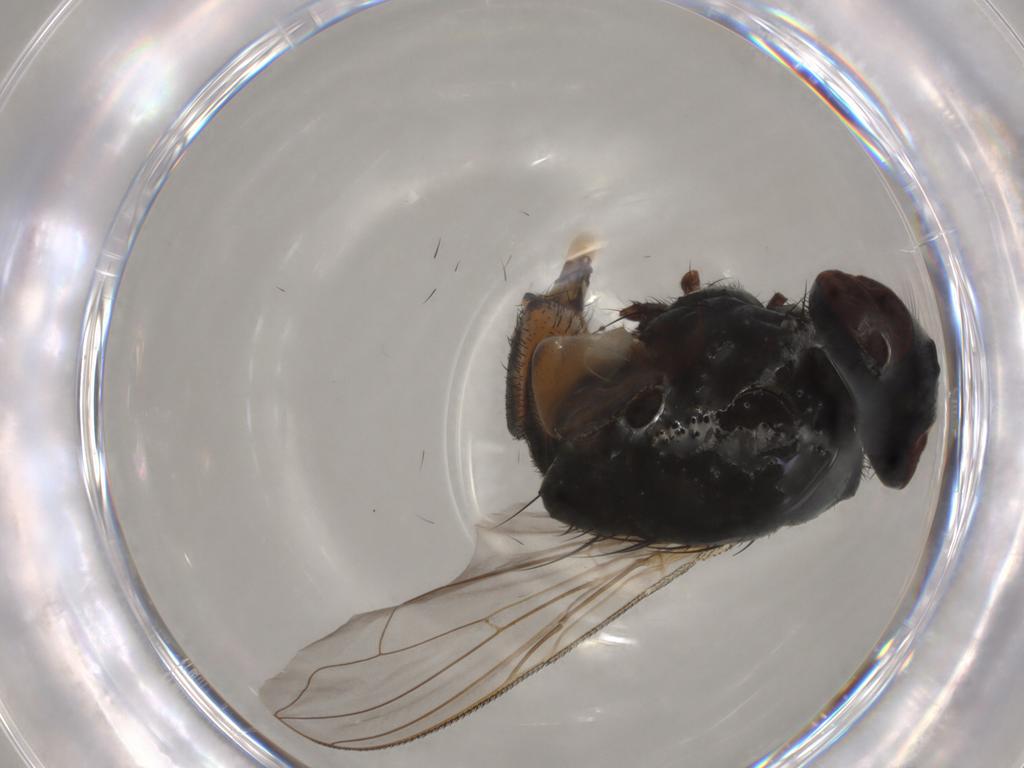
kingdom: Animalia
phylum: Arthropoda
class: Insecta
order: Diptera
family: Muscidae
